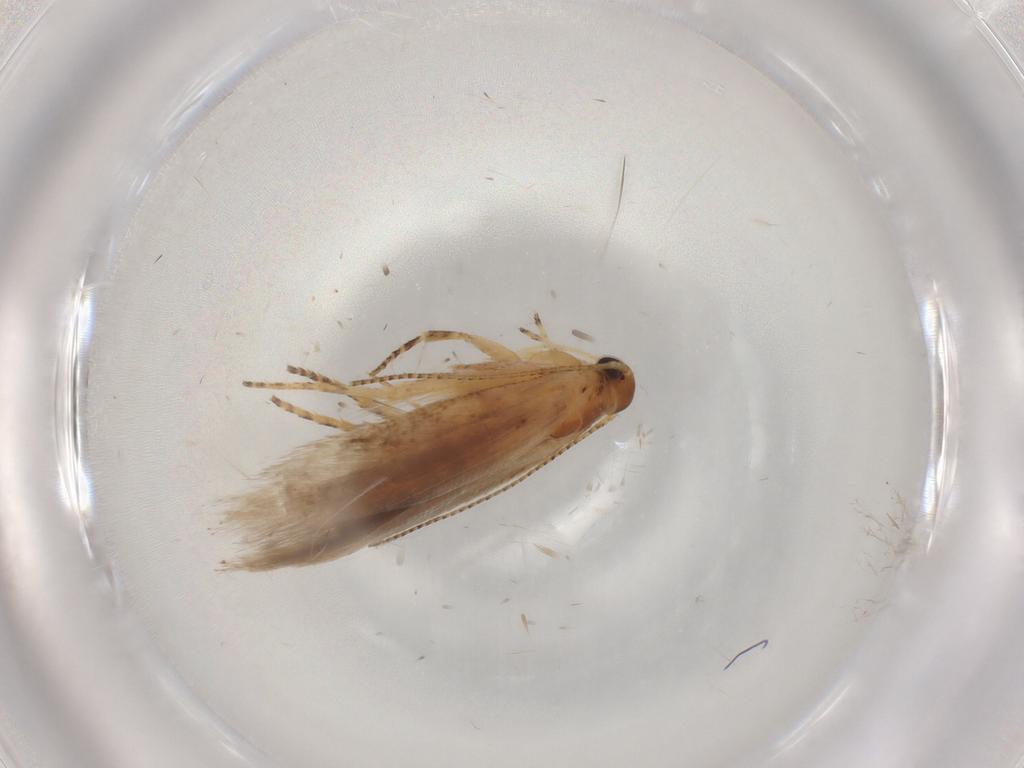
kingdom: Animalia
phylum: Arthropoda
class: Insecta
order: Lepidoptera
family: Gelechiidae
